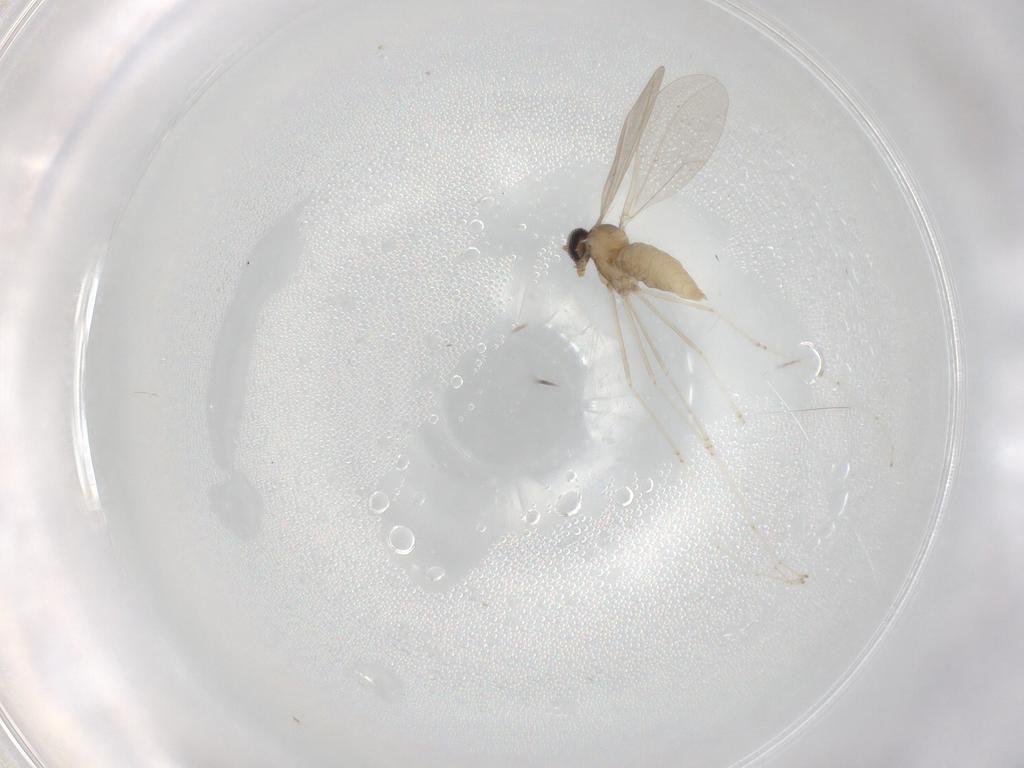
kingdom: Animalia
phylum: Arthropoda
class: Insecta
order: Diptera
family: Cecidomyiidae
